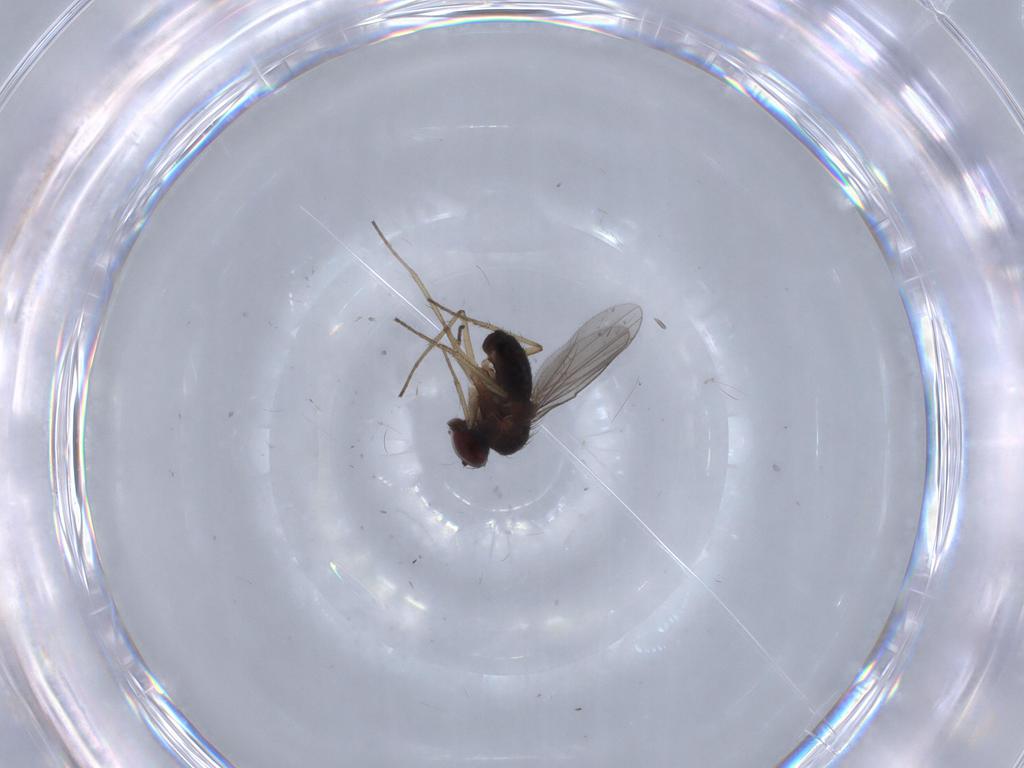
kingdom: Animalia
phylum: Arthropoda
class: Insecta
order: Diptera
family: Dolichopodidae
